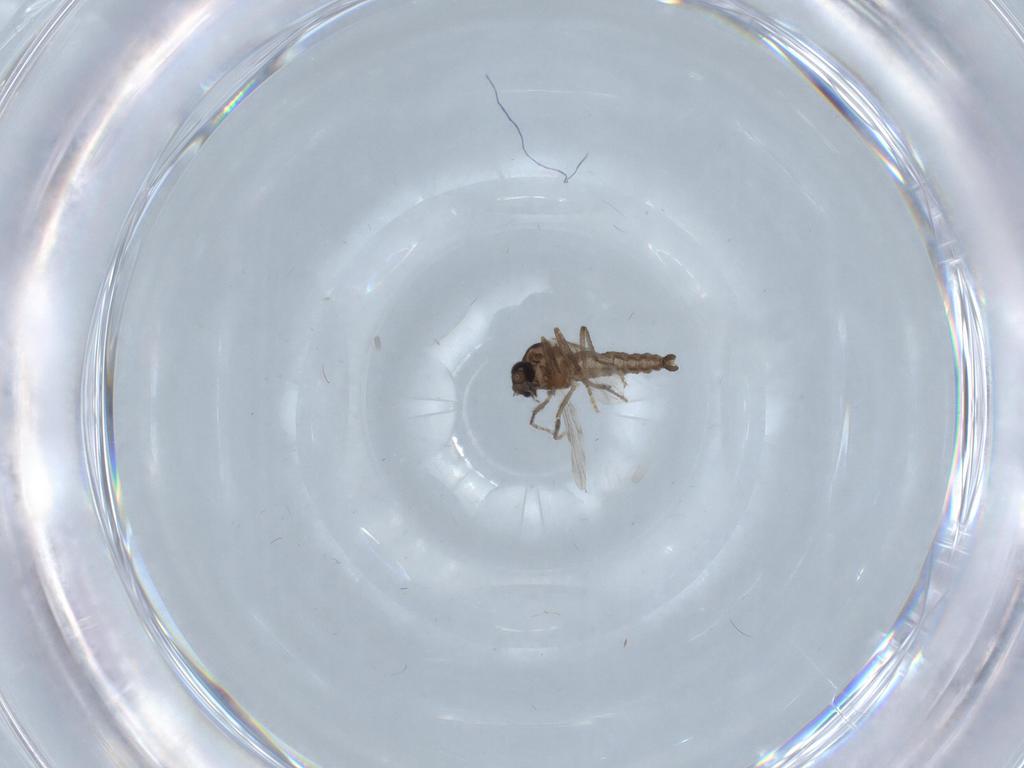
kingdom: Animalia
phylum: Arthropoda
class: Insecta
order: Diptera
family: Ceratopogonidae
